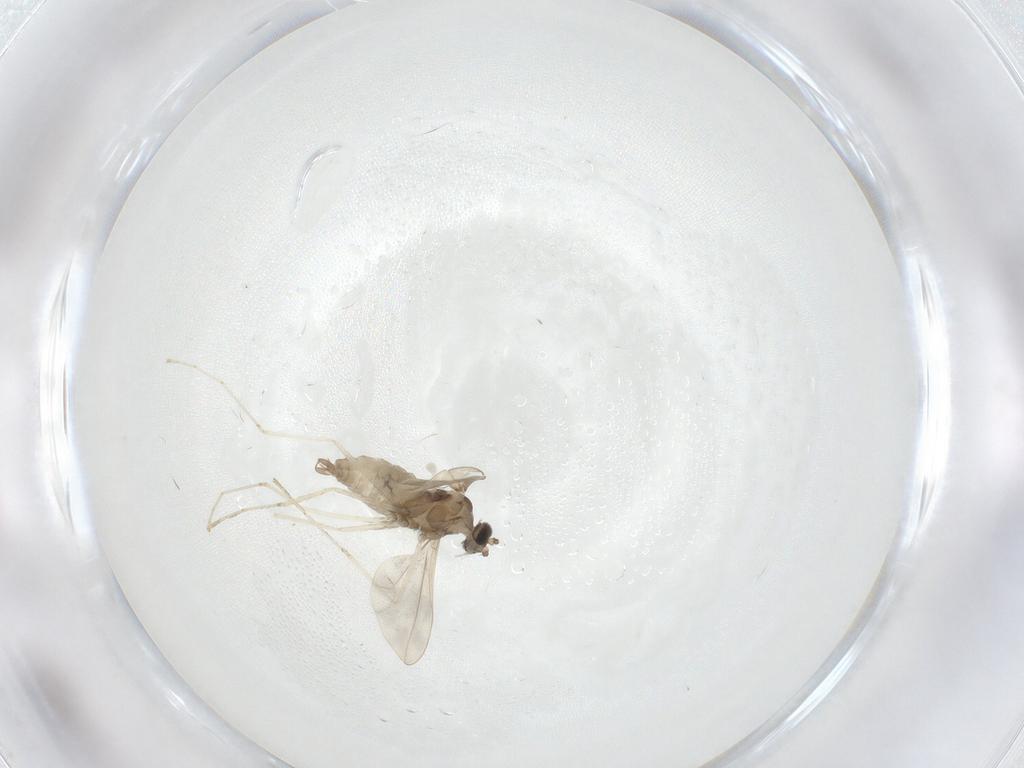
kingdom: Animalia
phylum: Arthropoda
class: Insecta
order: Diptera
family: Cecidomyiidae
